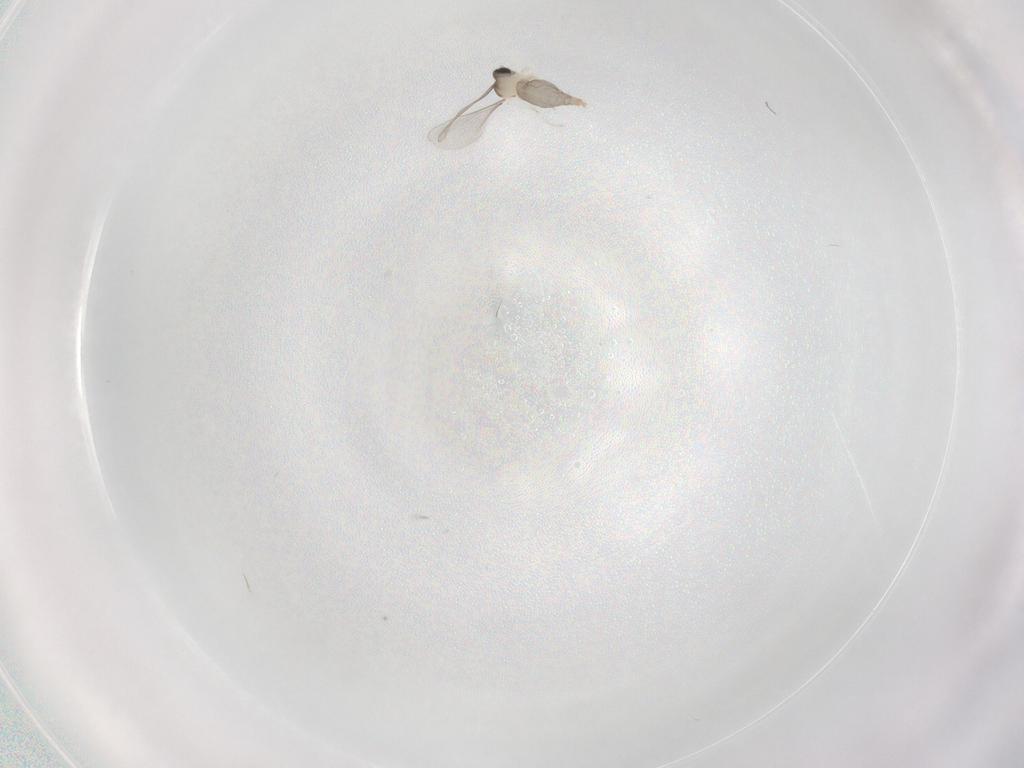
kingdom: Animalia
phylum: Arthropoda
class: Insecta
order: Diptera
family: Cecidomyiidae
